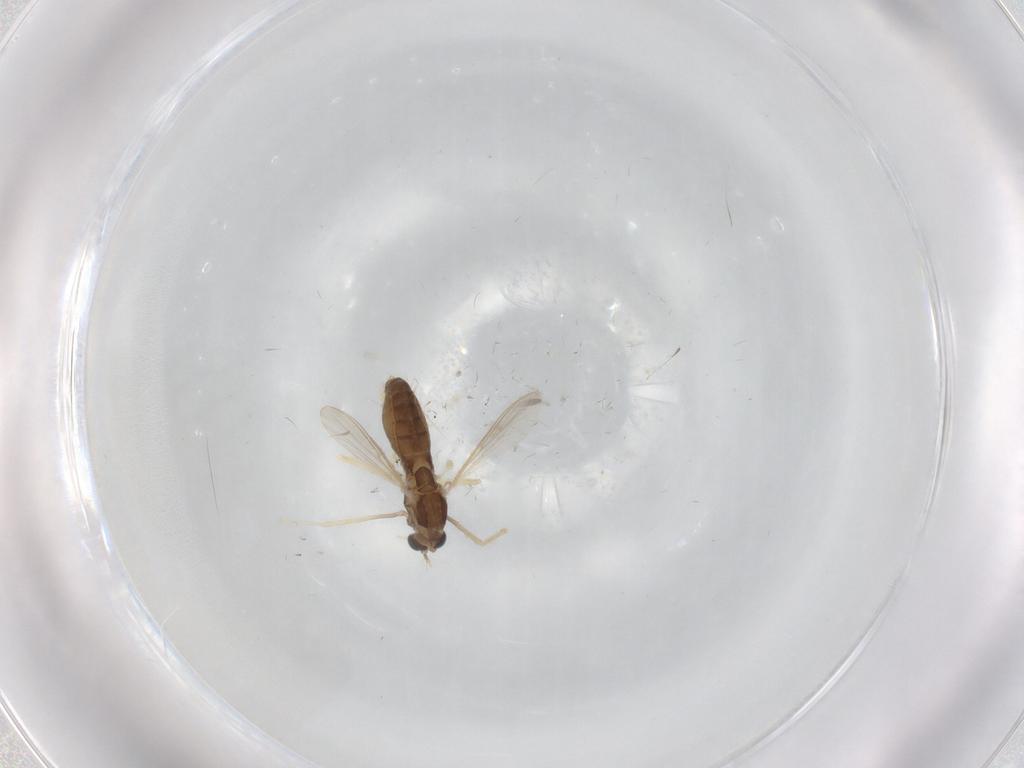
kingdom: Animalia
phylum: Arthropoda
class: Insecta
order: Diptera
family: Chironomidae
